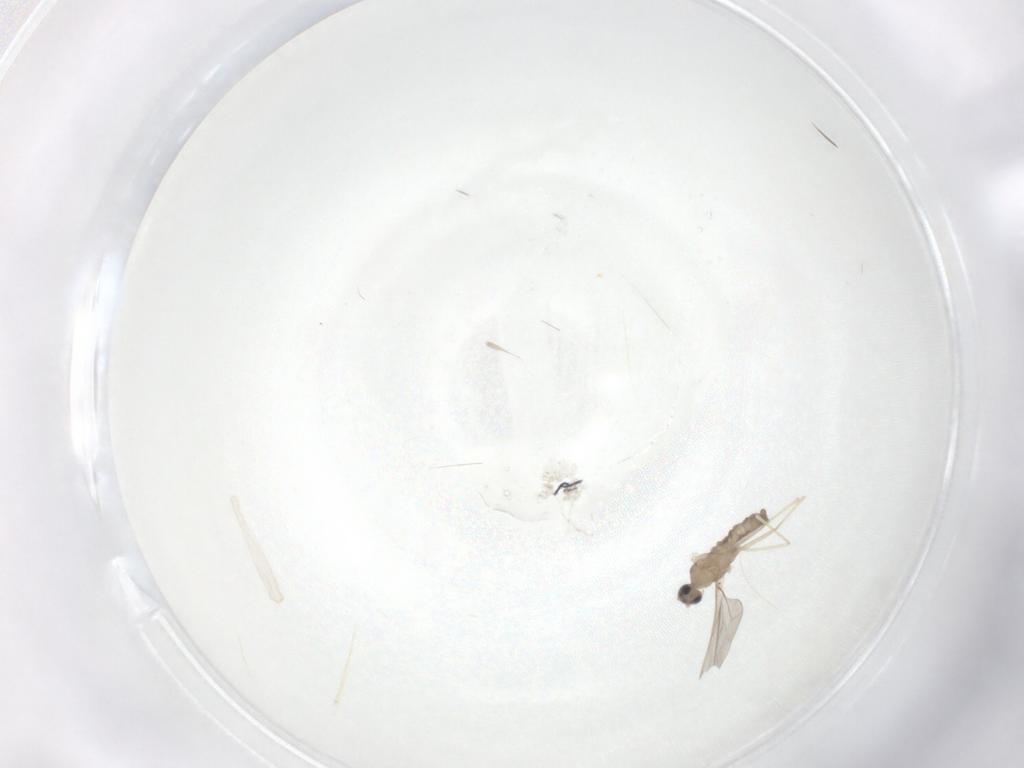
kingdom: Animalia
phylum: Arthropoda
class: Insecta
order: Diptera
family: Cecidomyiidae
